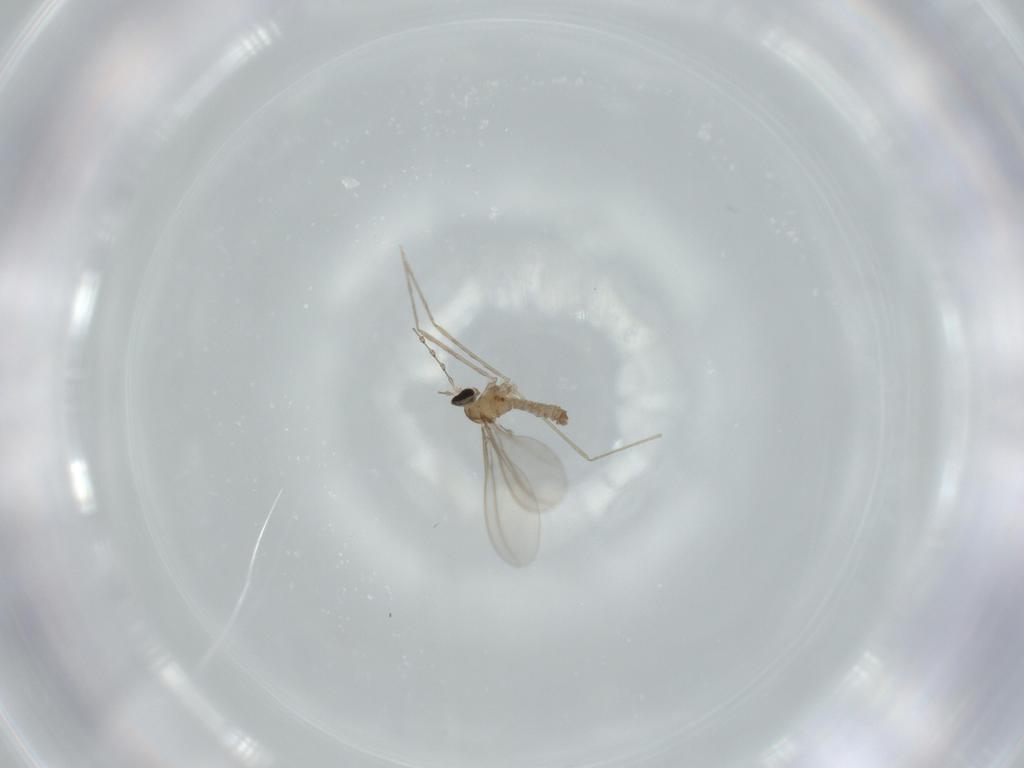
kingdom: Animalia
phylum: Arthropoda
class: Insecta
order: Diptera
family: Cecidomyiidae
